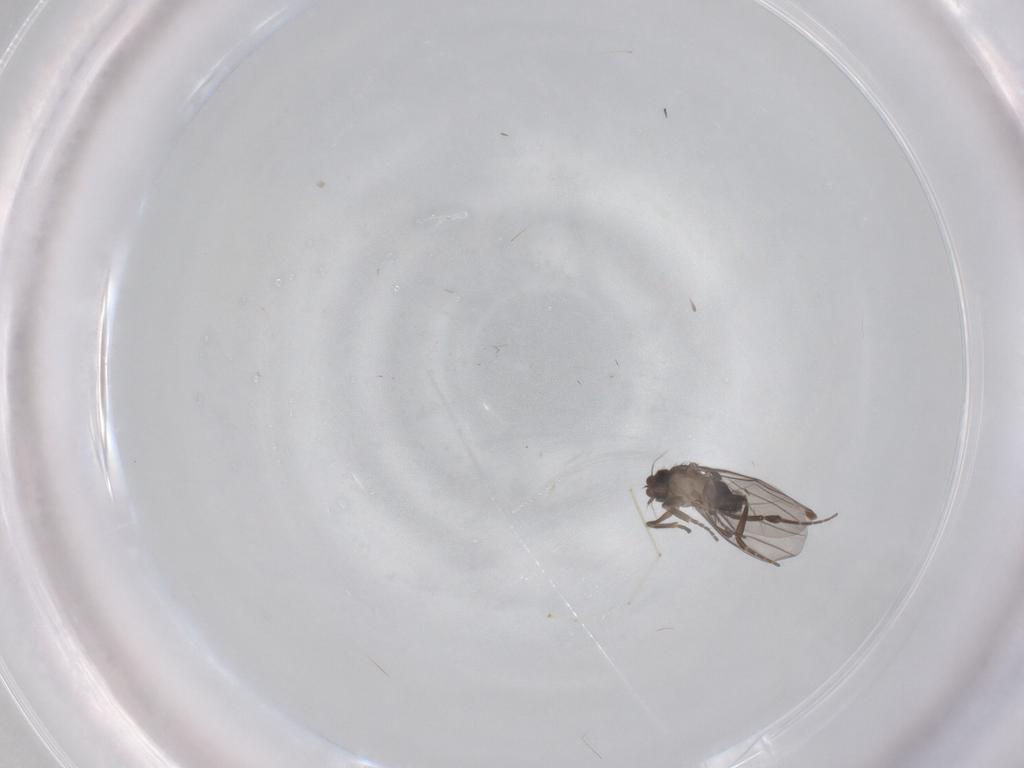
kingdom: Animalia
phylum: Arthropoda
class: Insecta
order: Diptera
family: Chironomidae
